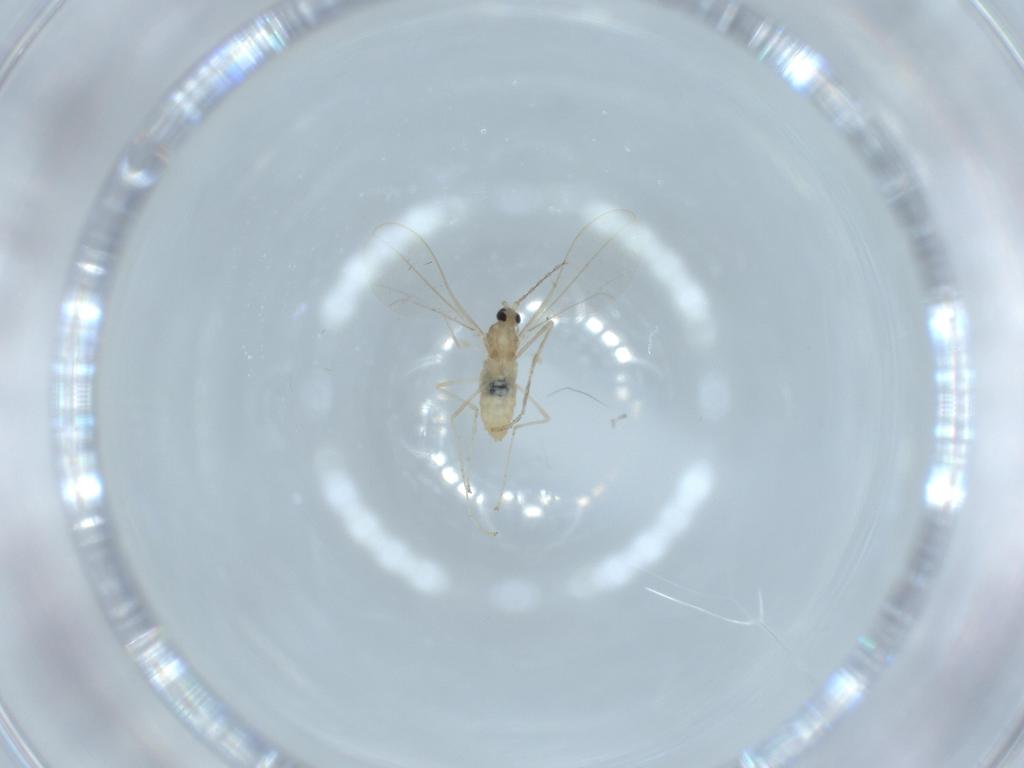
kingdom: Animalia
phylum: Arthropoda
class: Insecta
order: Diptera
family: Cecidomyiidae
